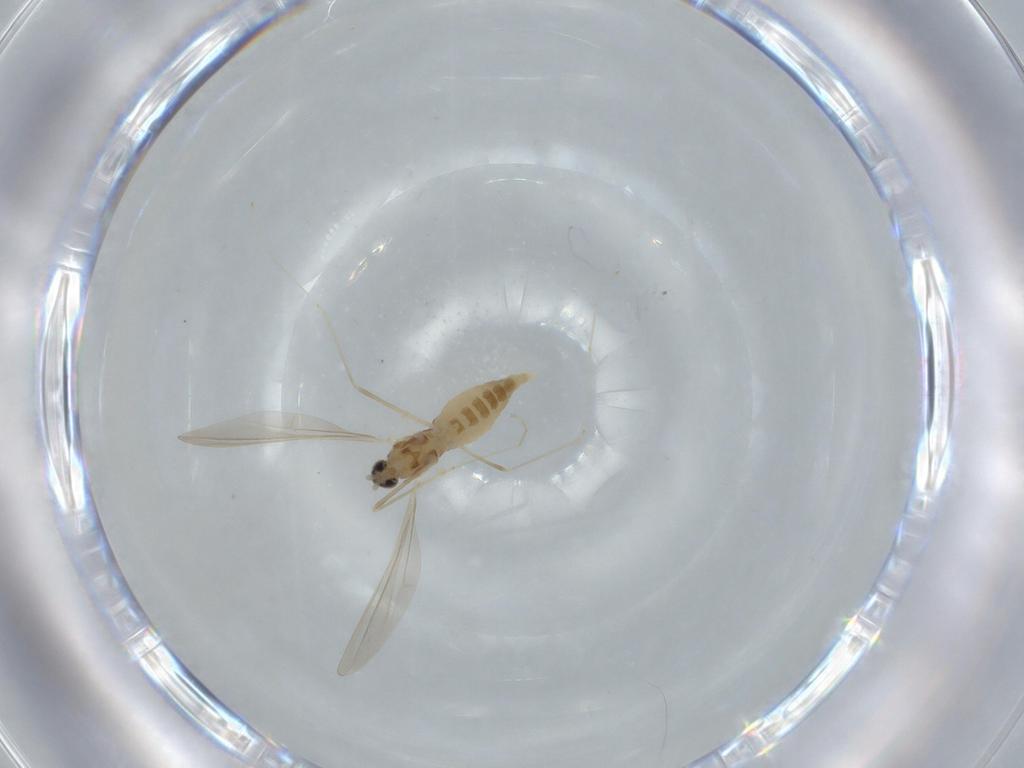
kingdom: Animalia
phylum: Arthropoda
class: Insecta
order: Diptera
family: Cecidomyiidae
